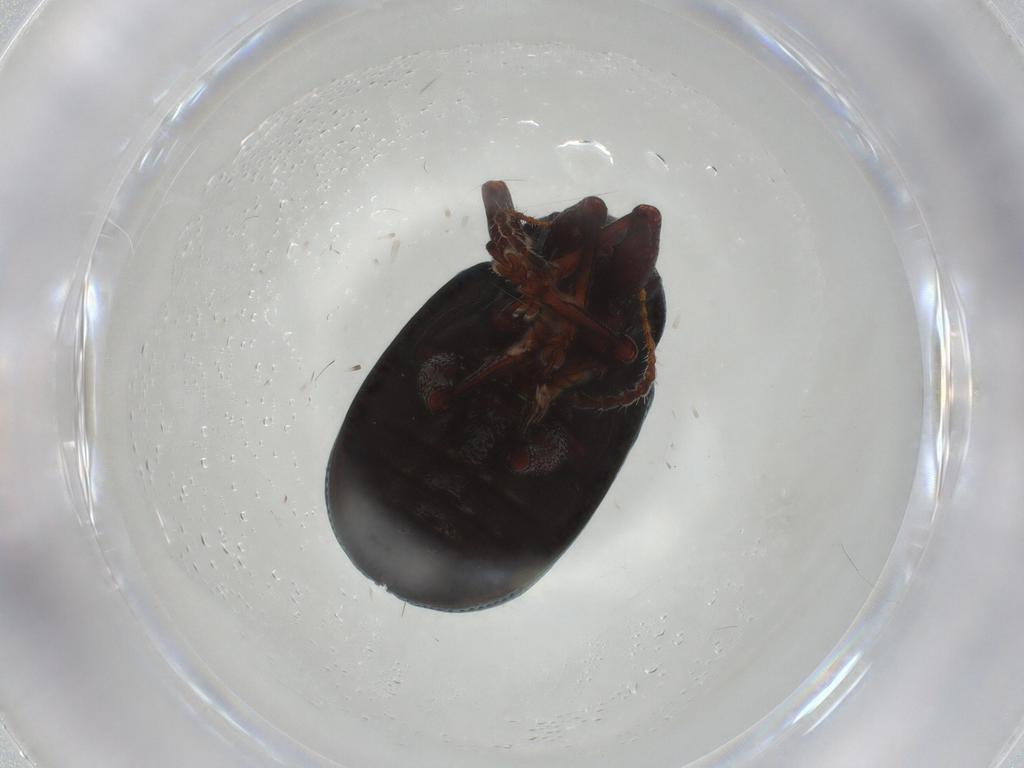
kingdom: Animalia
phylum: Arthropoda
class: Insecta
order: Coleoptera
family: Chrysomelidae
